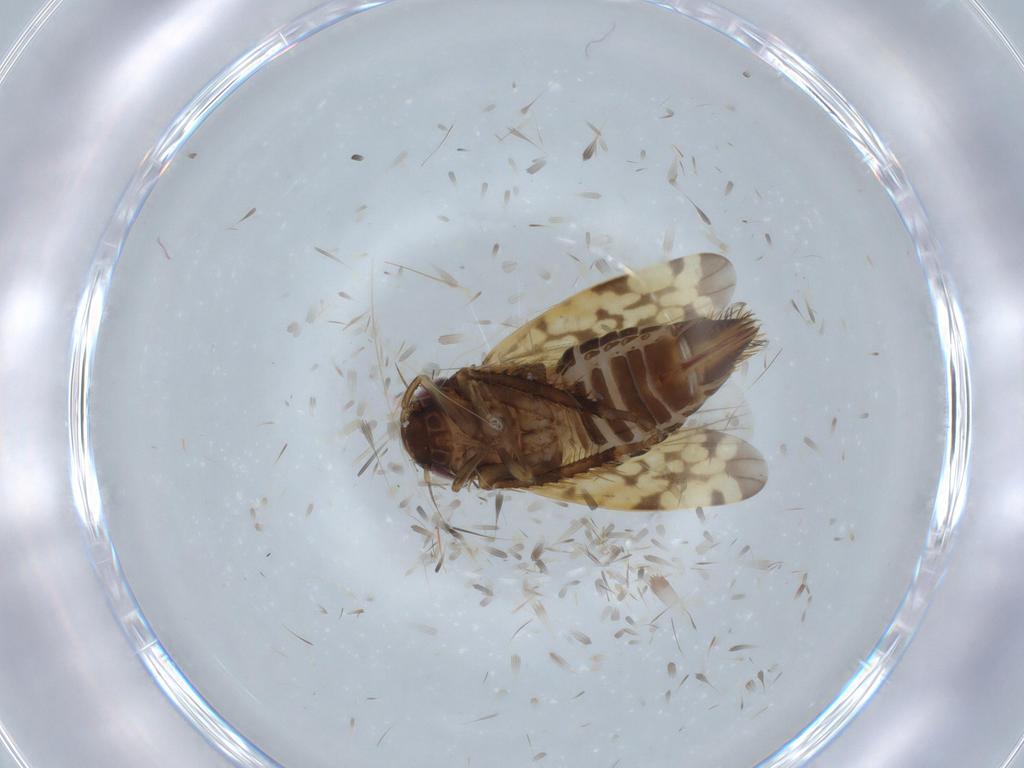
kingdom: Animalia
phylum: Arthropoda
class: Insecta
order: Hemiptera
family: Cicadellidae
